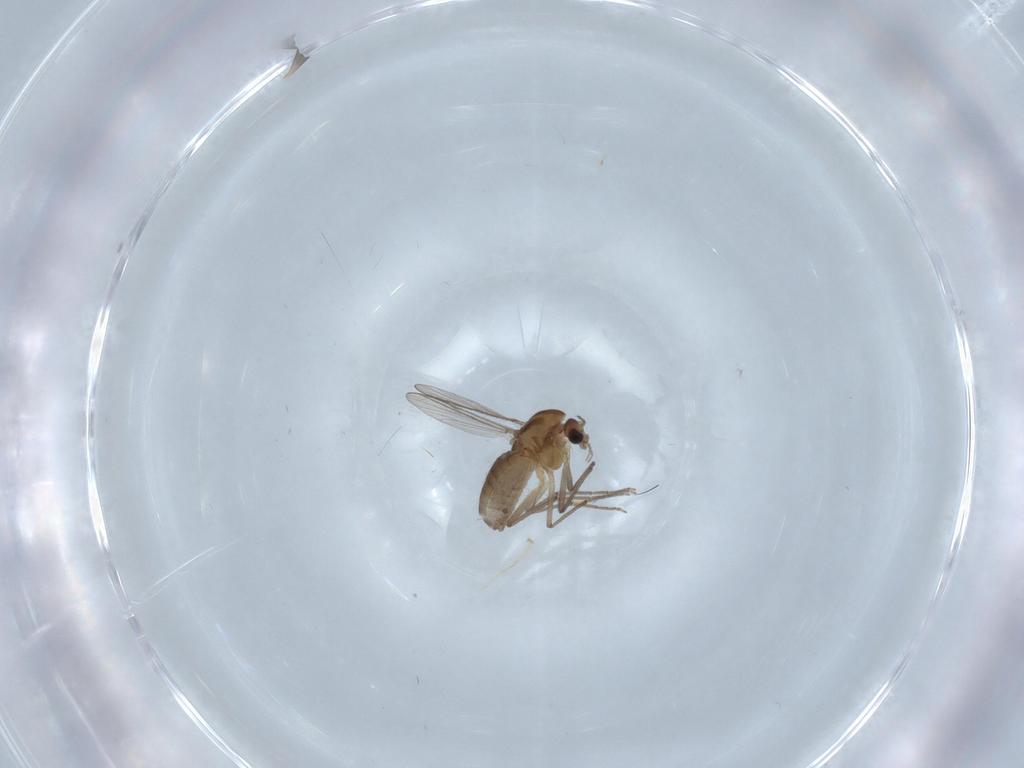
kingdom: Animalia
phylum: Arthropoda
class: Insecta
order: Diptera
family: Chironomidae
